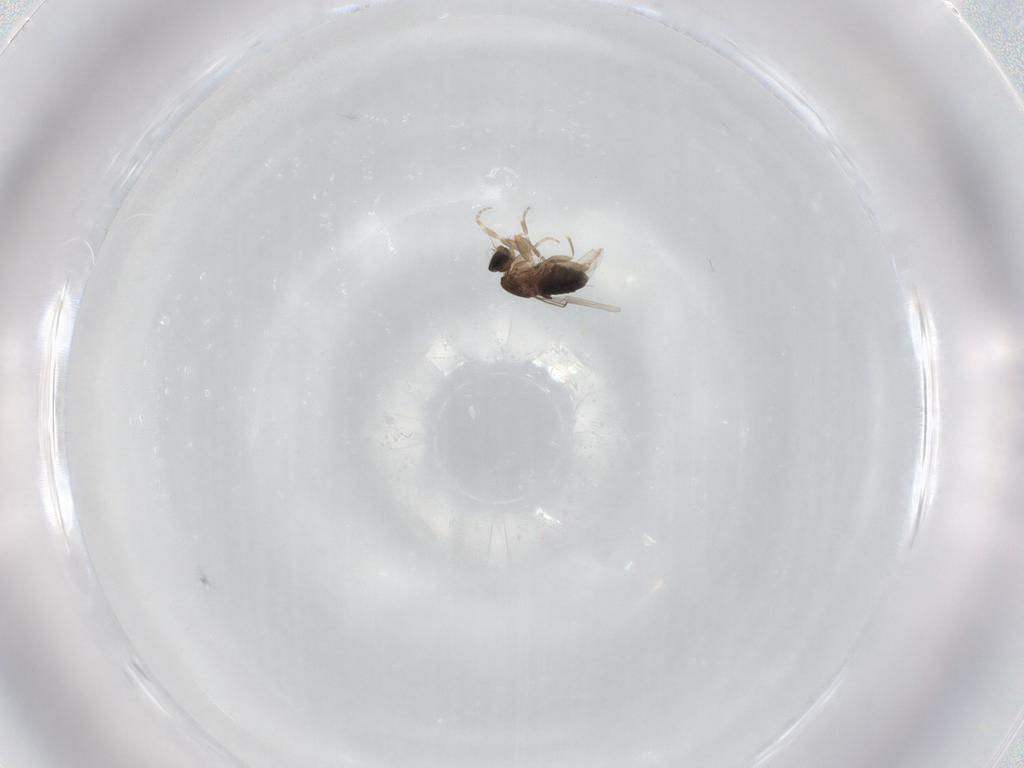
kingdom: Animalia
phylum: Arthropoda
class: Insecta
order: Diptera
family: Phoridae
